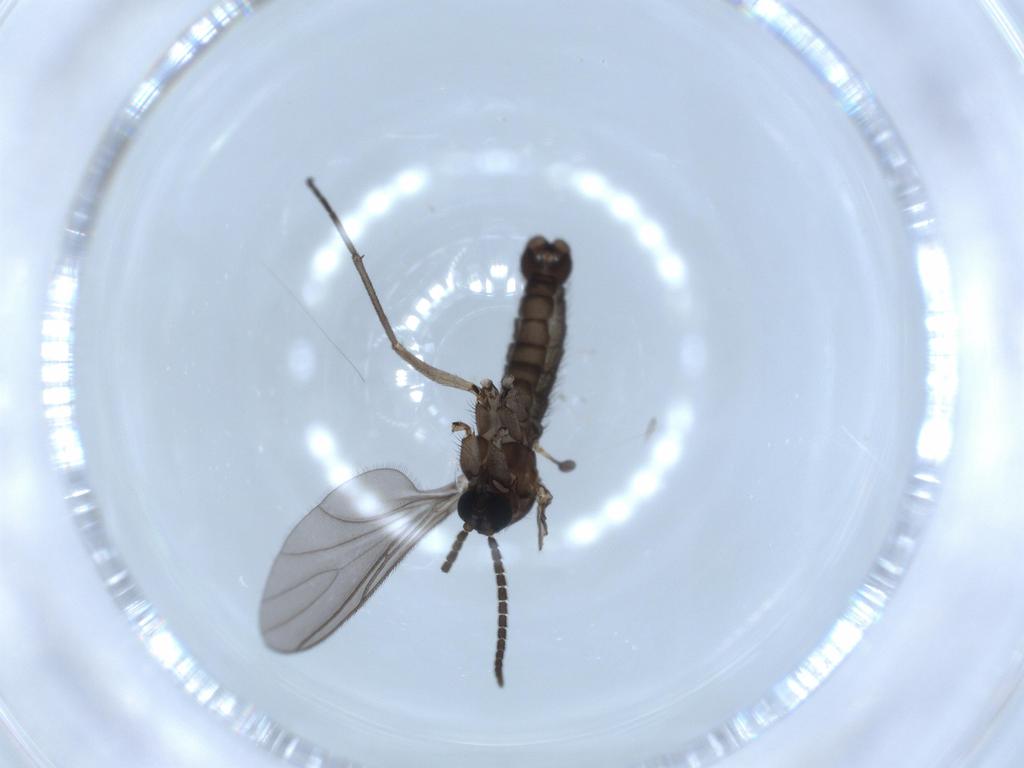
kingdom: Animalia
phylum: Arthropoda
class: Insecta
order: Diptera
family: Sciaridae
